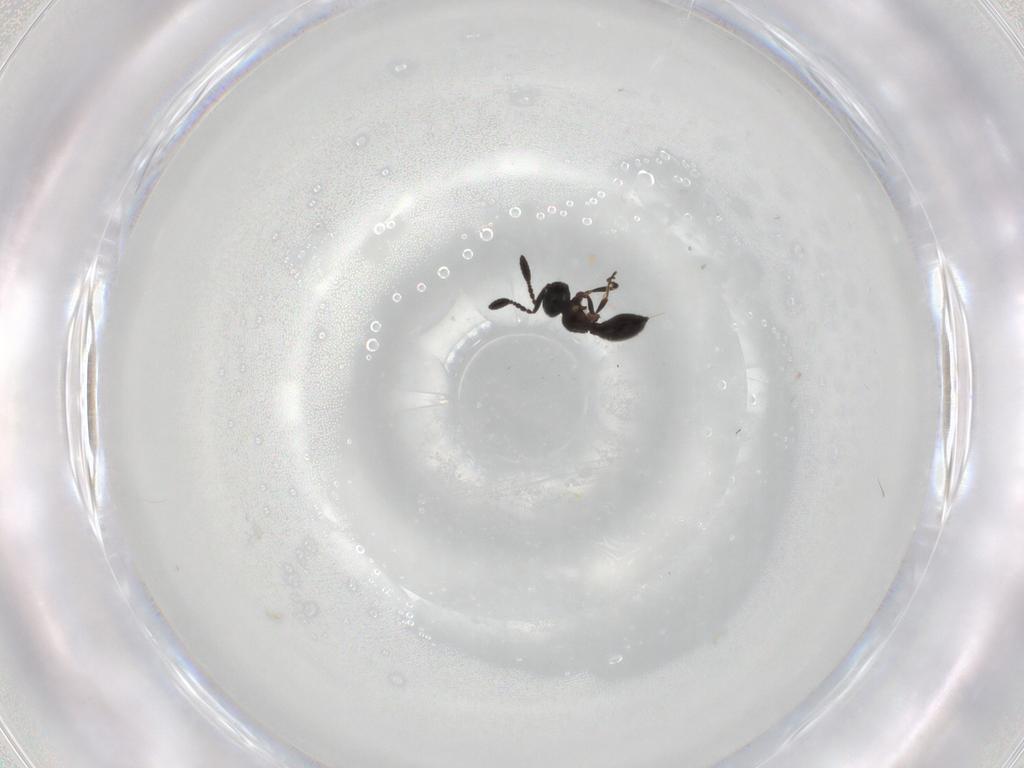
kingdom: Animalia
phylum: Arthropoda
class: Insecta
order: Hymenoptera
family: Scelionidae
